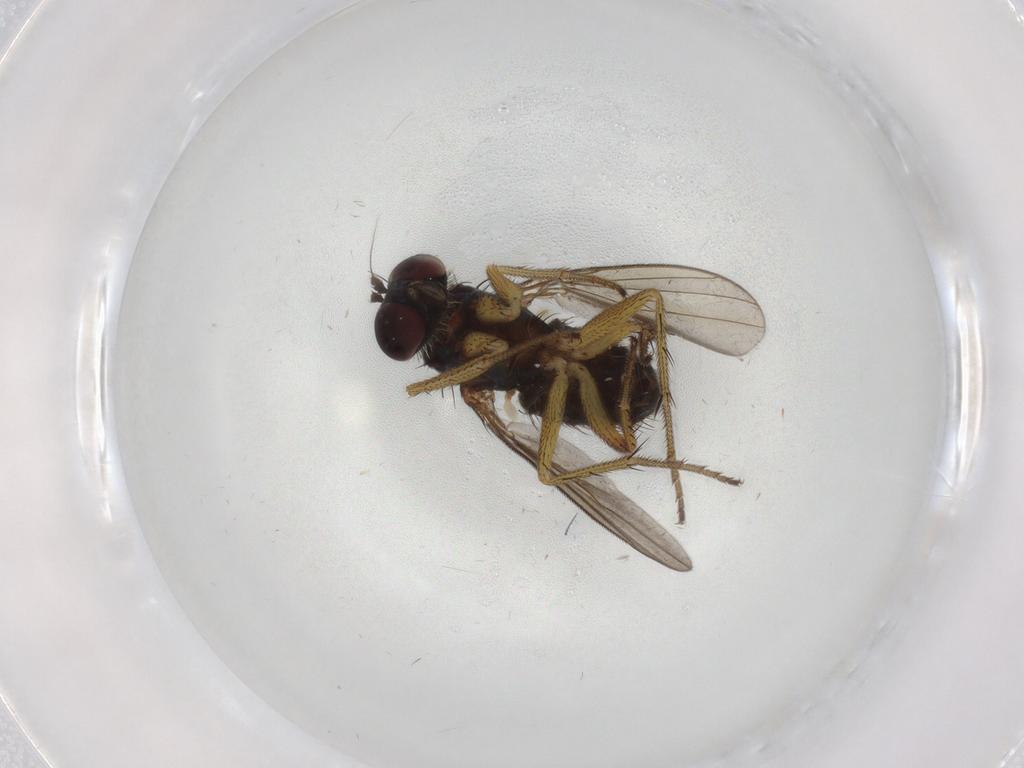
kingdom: Animalia
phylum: Arthropoda
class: Insecta
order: Diptera
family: Dolichopodidae
